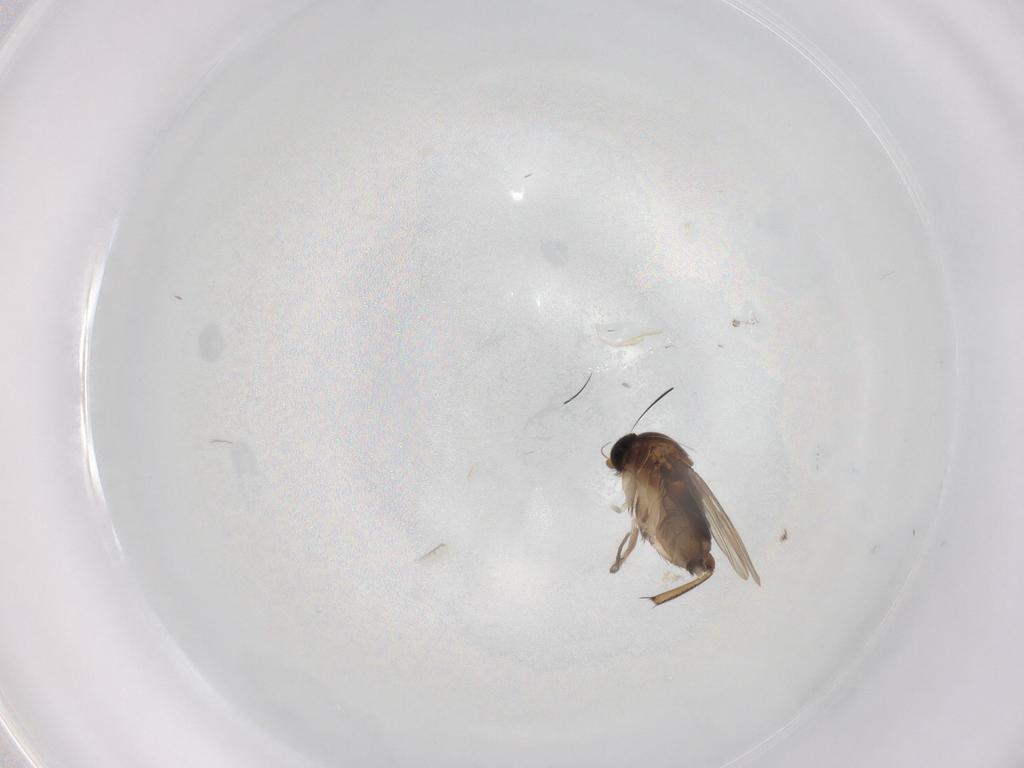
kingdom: Animalia
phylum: Arthropoda
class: Insecta
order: Diptera
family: Phoridae
